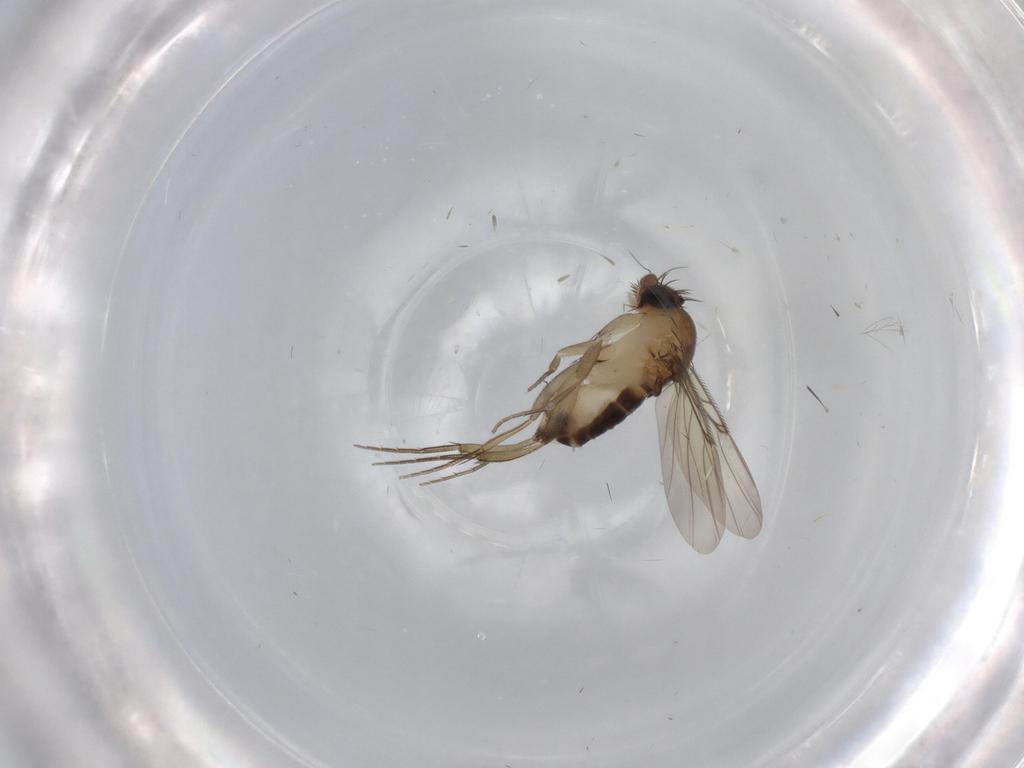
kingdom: Animalia
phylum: Arthropoda
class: Insecta
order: Diptera
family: Phoridae
